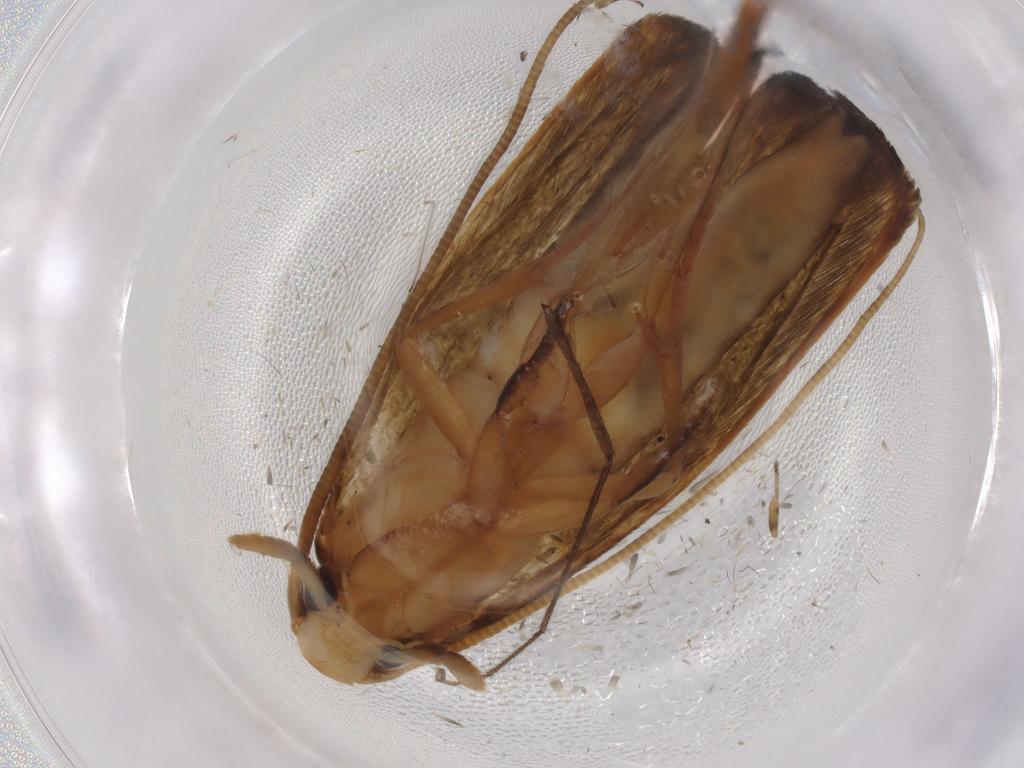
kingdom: Animalia
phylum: Arthropoda
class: Insecta
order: Lepidoptera
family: Tineidae
